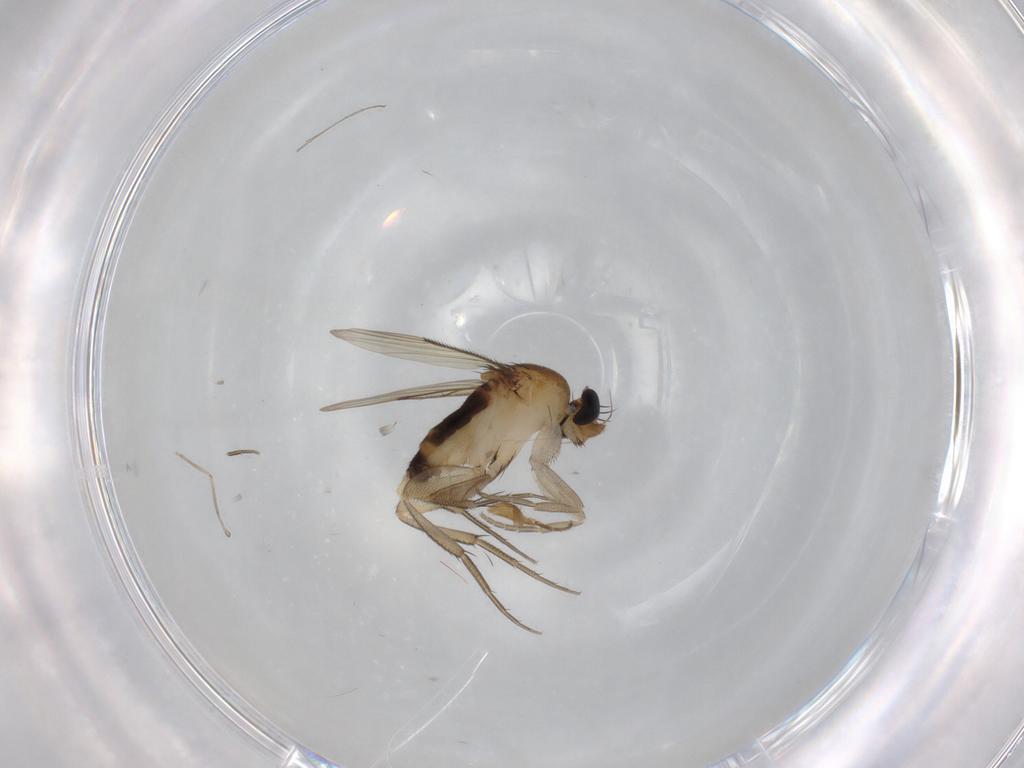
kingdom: Animalia
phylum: Arthropoda
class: Insecta
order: Diptera
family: Phoridae
